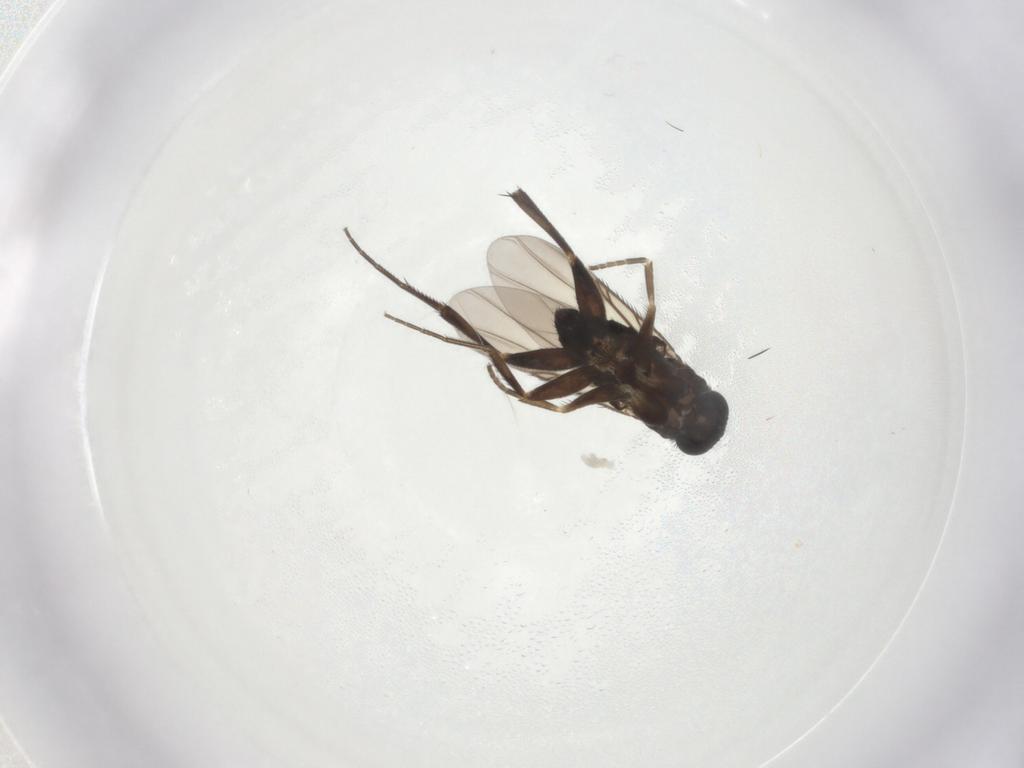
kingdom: Animalia
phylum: Arthropoda
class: Insecta
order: Diptera
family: Phoridae
